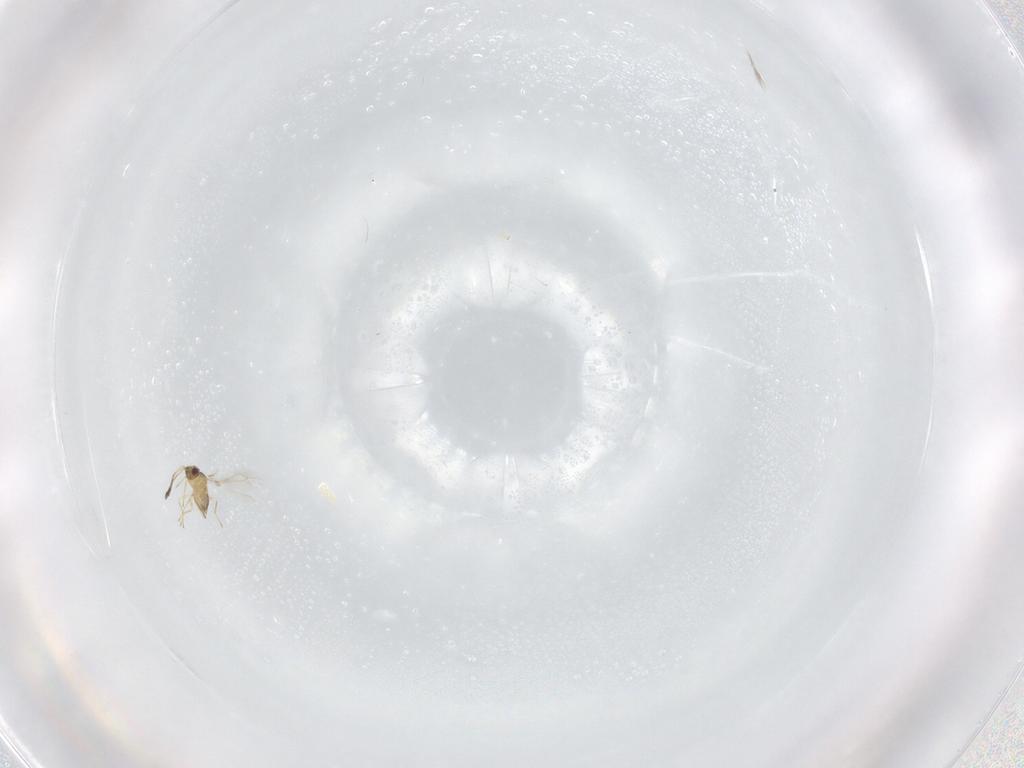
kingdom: Animalia
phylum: Arthropoda
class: Insecta
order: Hymenoptera
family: Mymaridae
